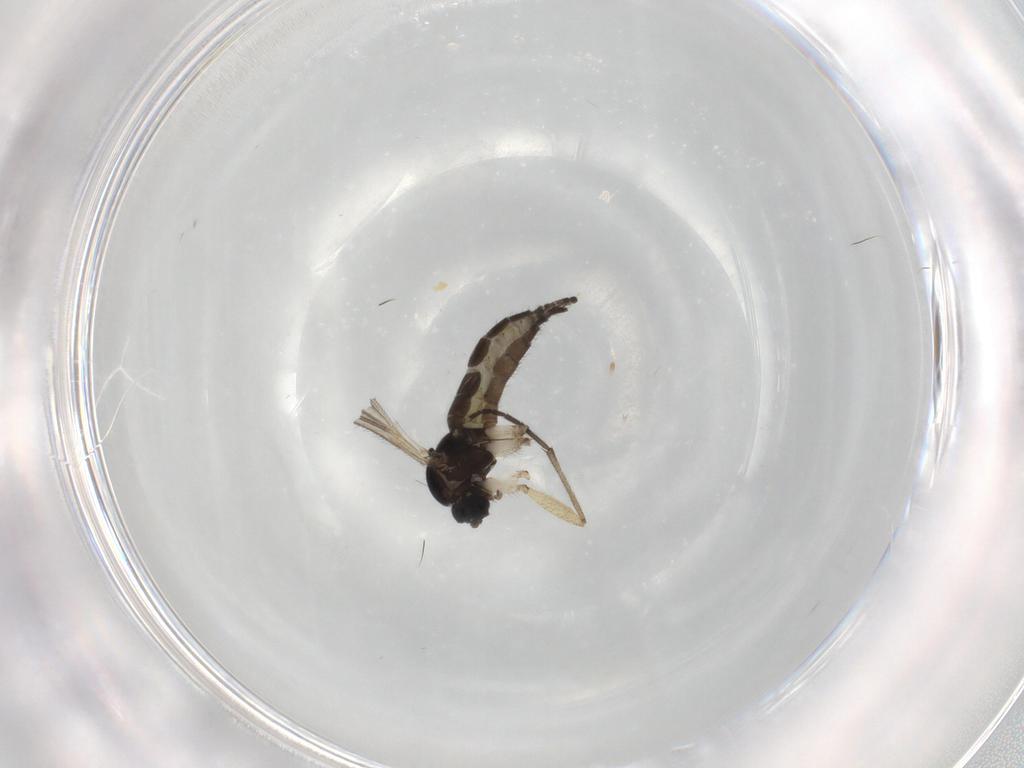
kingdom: Animalia
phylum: Arthropoda
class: Insecta
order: Diptera
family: Sciaridae
